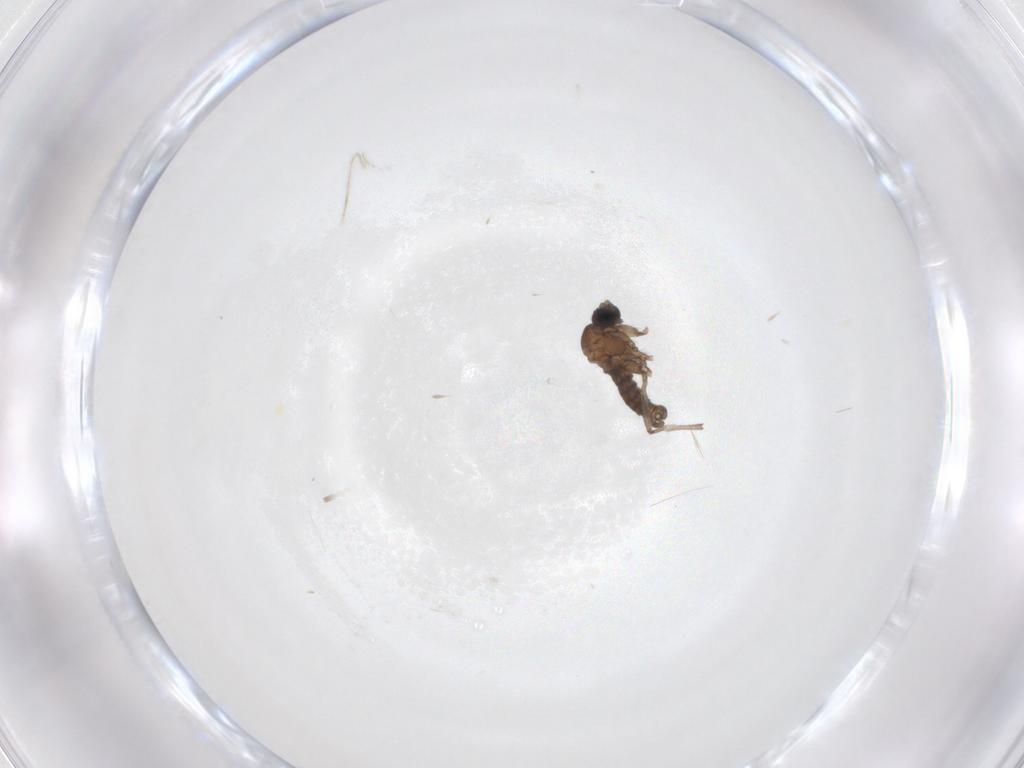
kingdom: Animalia
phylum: Arthropoda
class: Insecta
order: Diptera
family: Sciaridae
